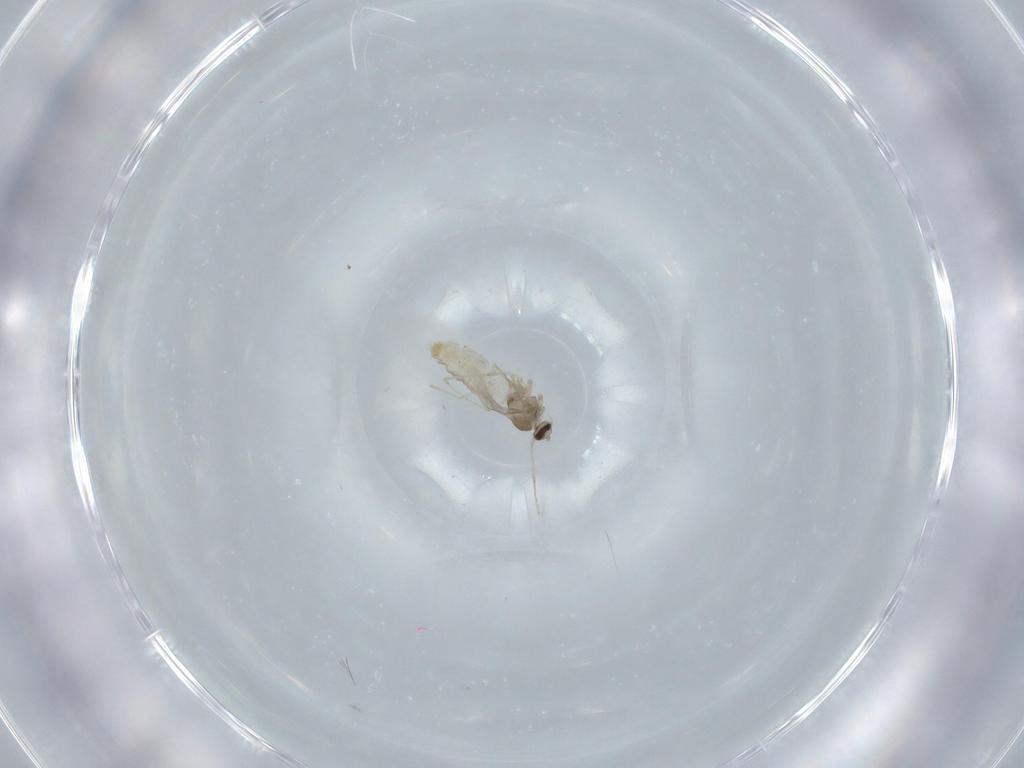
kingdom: Animalia
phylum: Arthropoda
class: Insecta
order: Diptera
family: Cecidomyiidae
